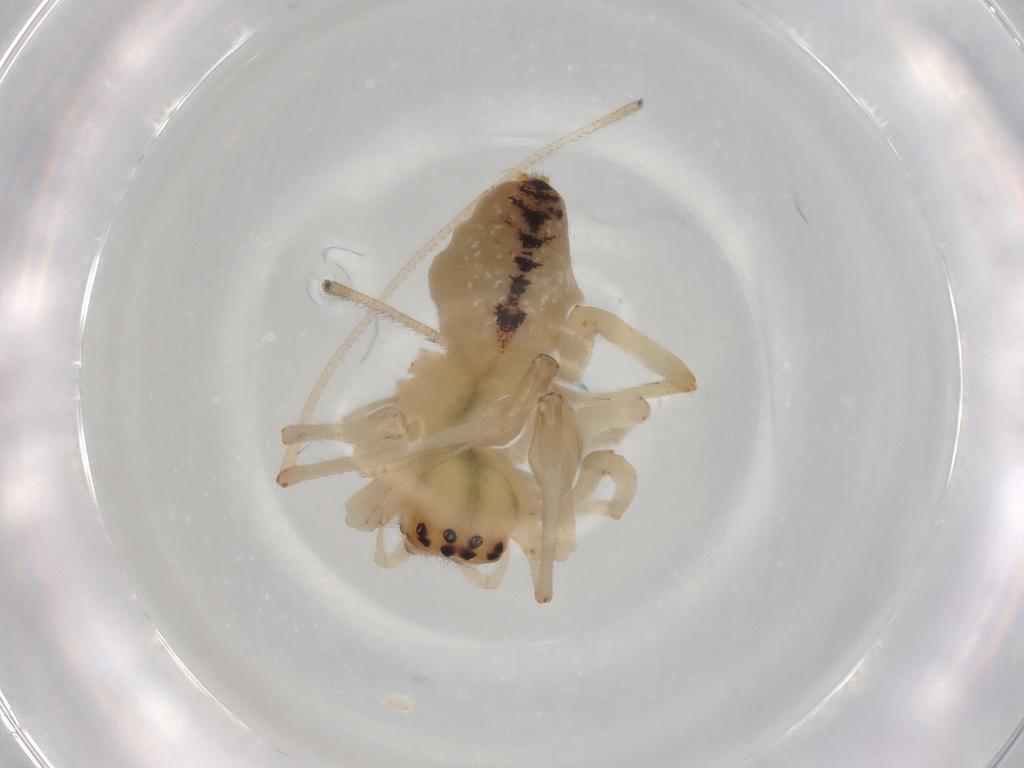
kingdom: Animalia
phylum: Arthropoda
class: Arachnida
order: Araneae
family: Cheiracanthiidae
